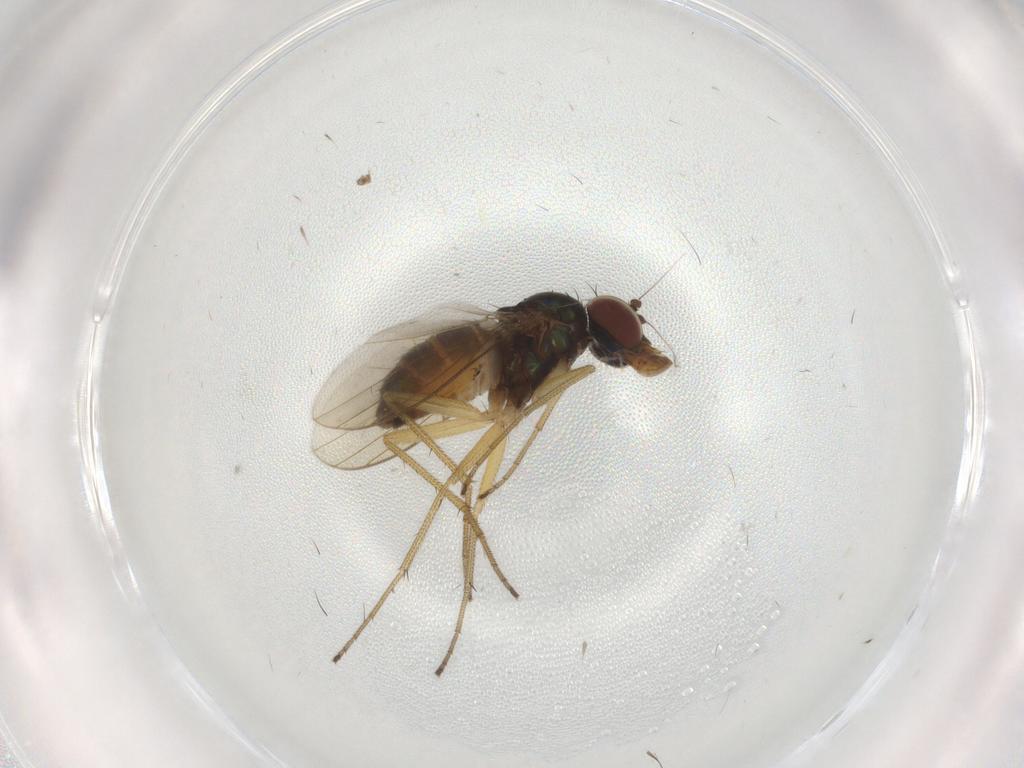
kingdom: Animalia
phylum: Arthropoda
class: Insecta
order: Diptera
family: Dolichopodidae
